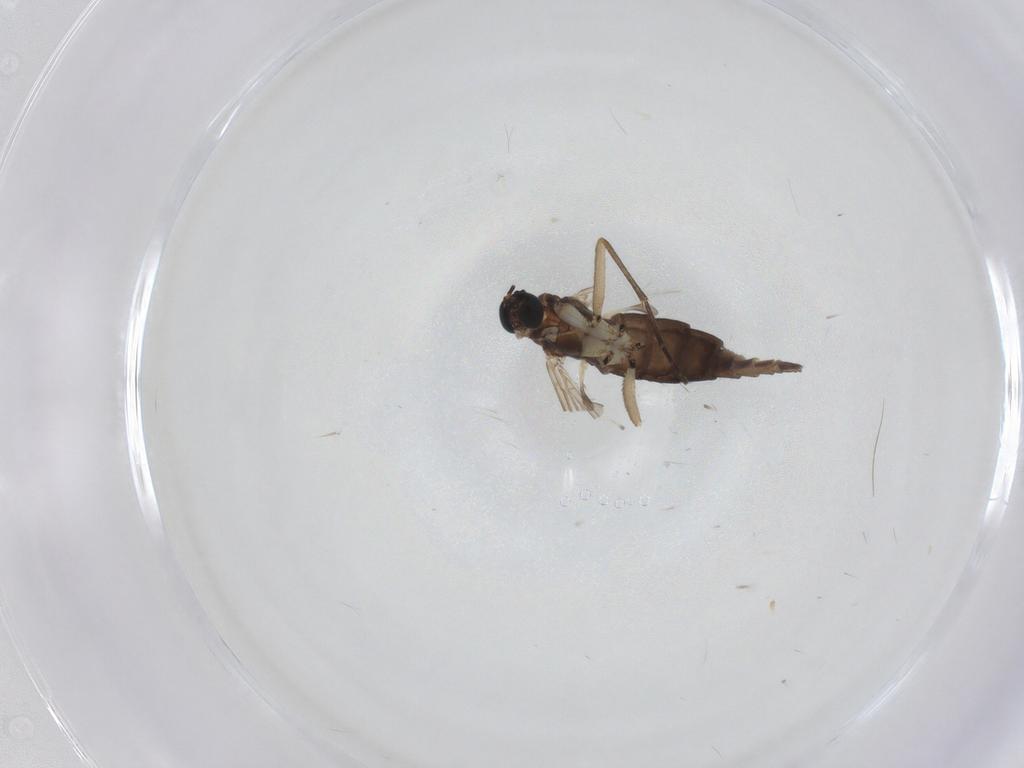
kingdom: Animalia
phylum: Arthropoda
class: Insecta
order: Diptera
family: Sciaridae
